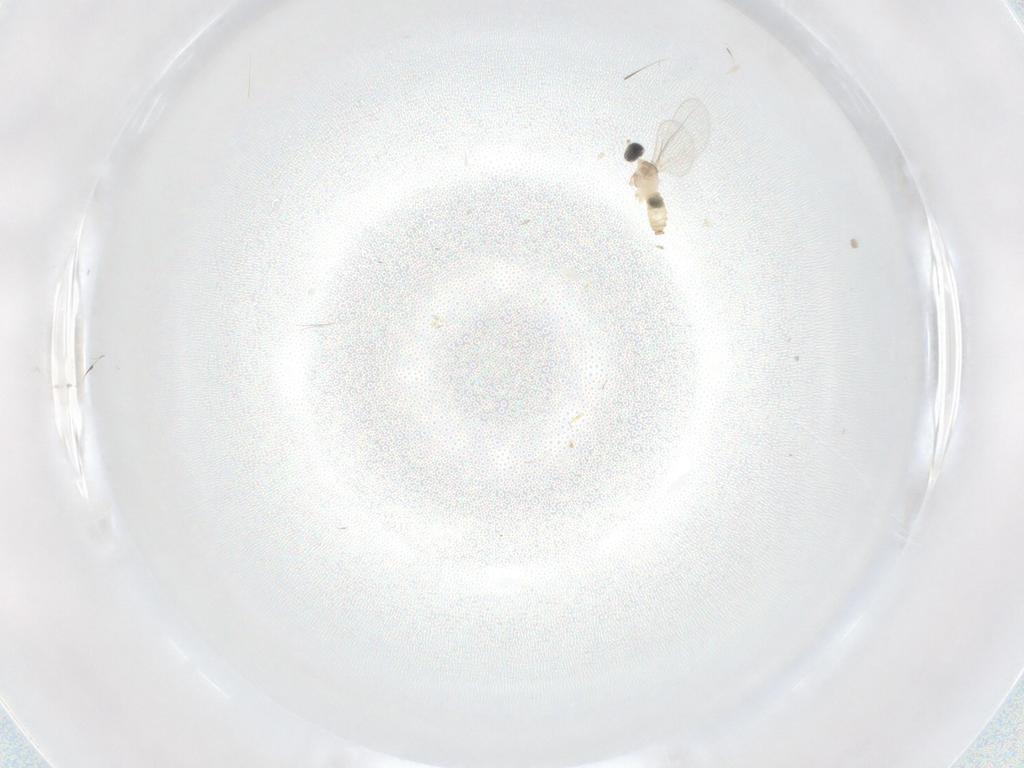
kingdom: Animalia
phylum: Arthropoda
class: Insecta
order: Diptera
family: Cecidomyiidae
